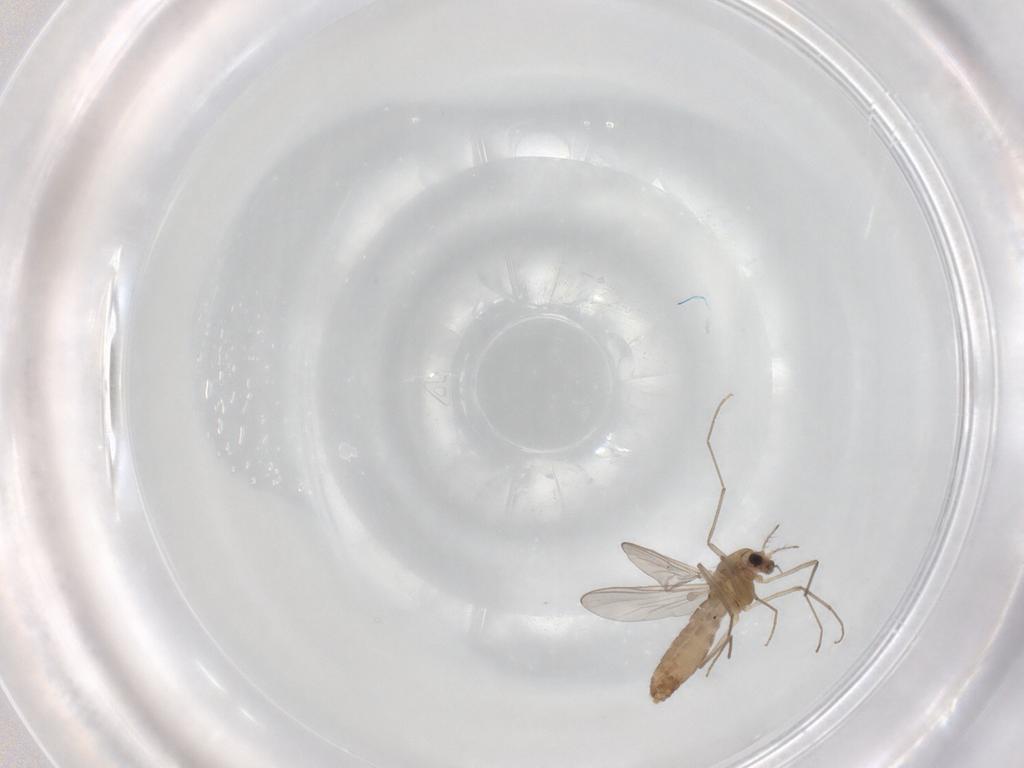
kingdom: Animalia
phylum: Arthropoda
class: Insecta
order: Diptera
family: Chironomidae
